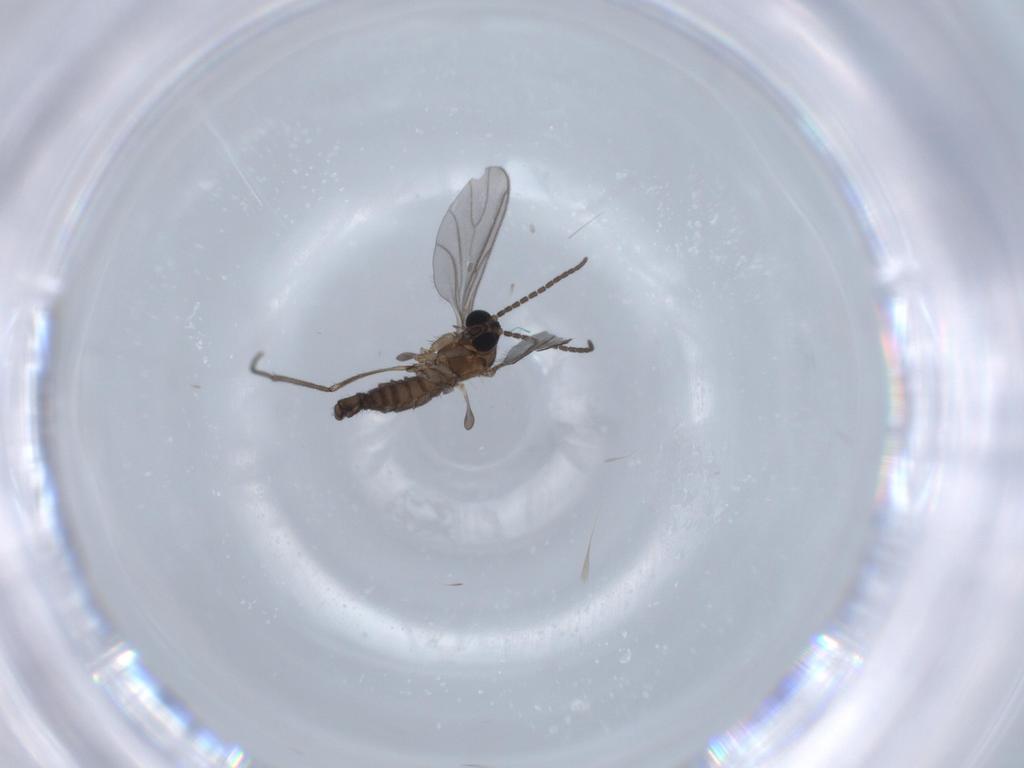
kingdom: Animalia
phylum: Arthropoda
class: Insecta
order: Diptera
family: Sciaridae
